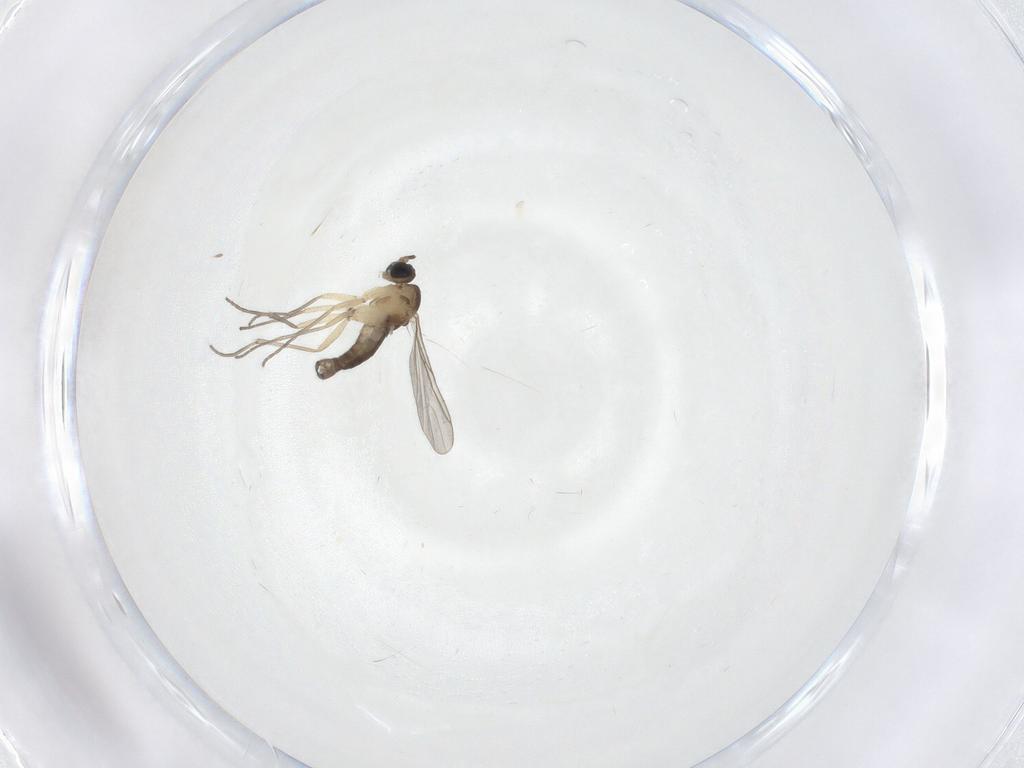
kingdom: Animalia
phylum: Arthropoda
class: Insecta
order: Diptera
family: Sciaridae
